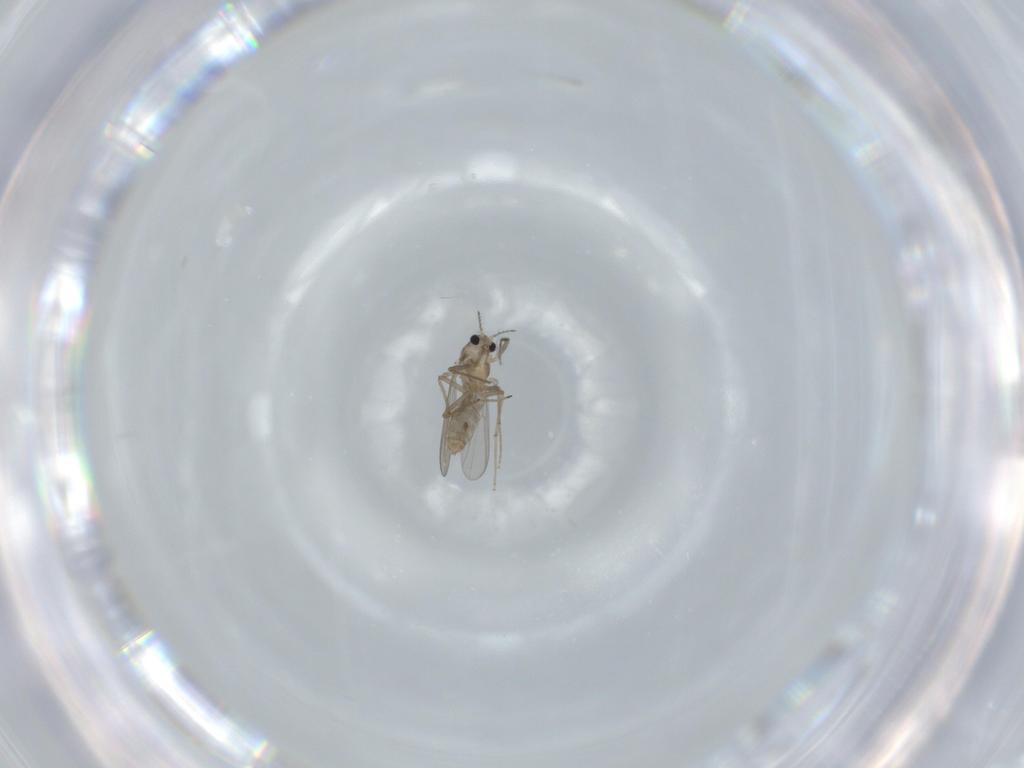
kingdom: Animalia
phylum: Arthropoda
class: Insecta
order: Diptera
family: Chironomidae
